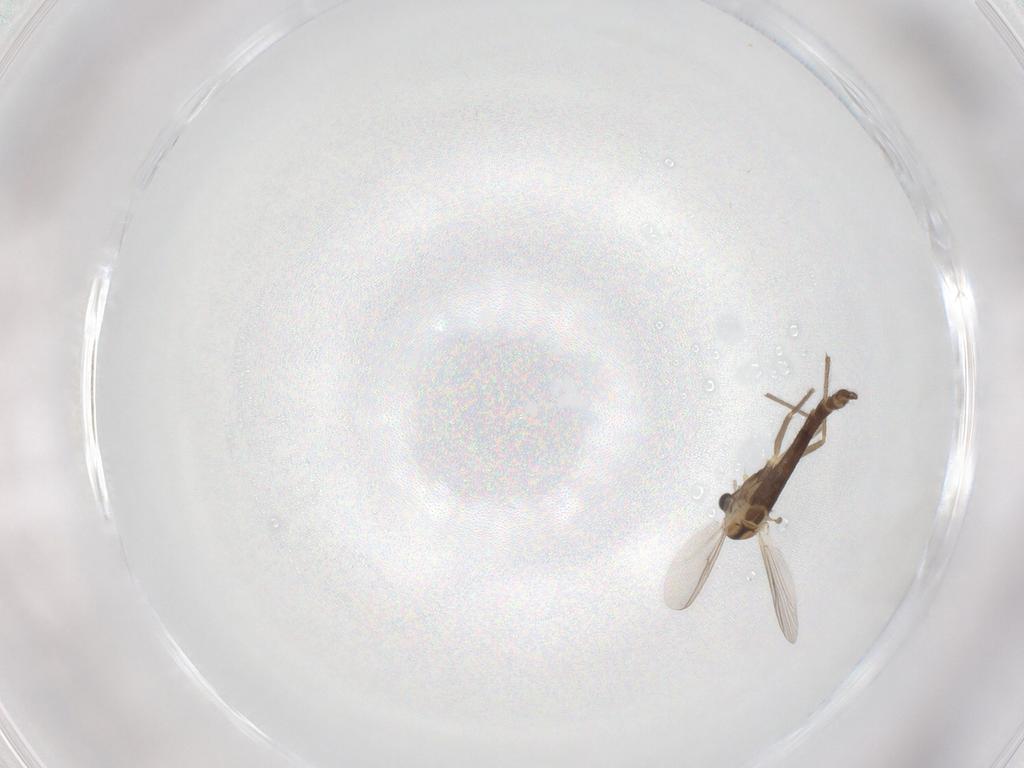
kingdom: Animalia
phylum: Arthropoda
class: Insecta
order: Diptera
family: Chironomidae
